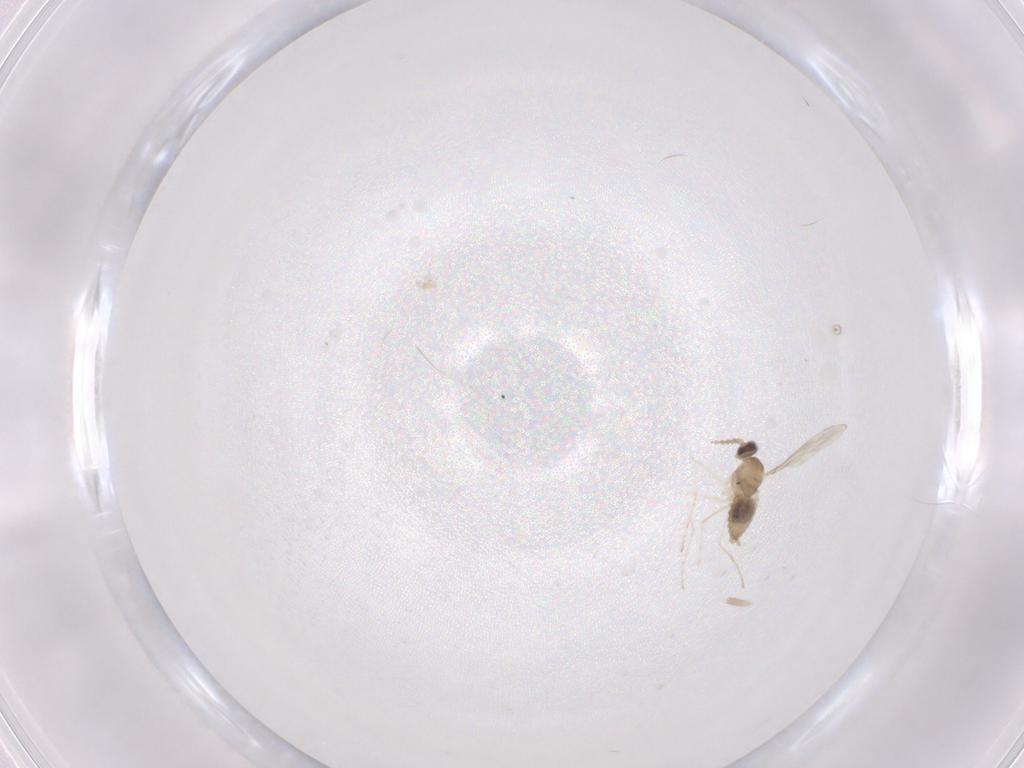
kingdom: Animalia
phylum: Arthropoda
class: Insecta
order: Diptera
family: Cecidomyiidae
